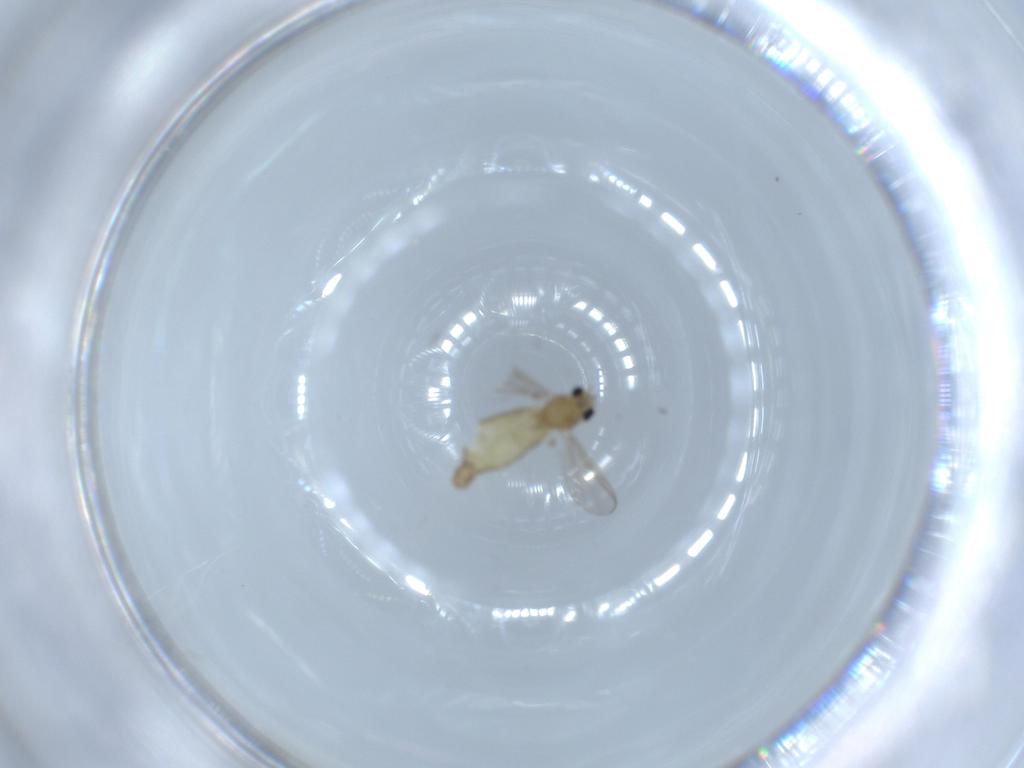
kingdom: Animalia
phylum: Arthropoda
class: Insecta
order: Diptera
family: Chironomidae
